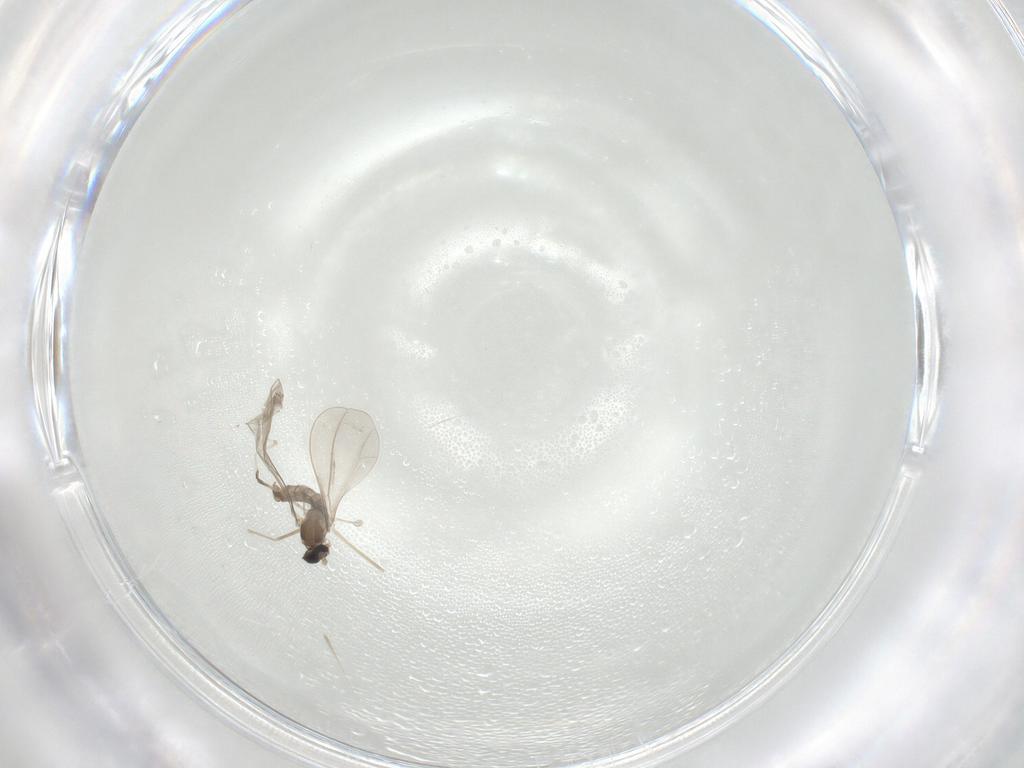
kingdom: Animalia
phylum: Arthropoda
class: Insecta
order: Diptera
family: Cecidomyiidae
